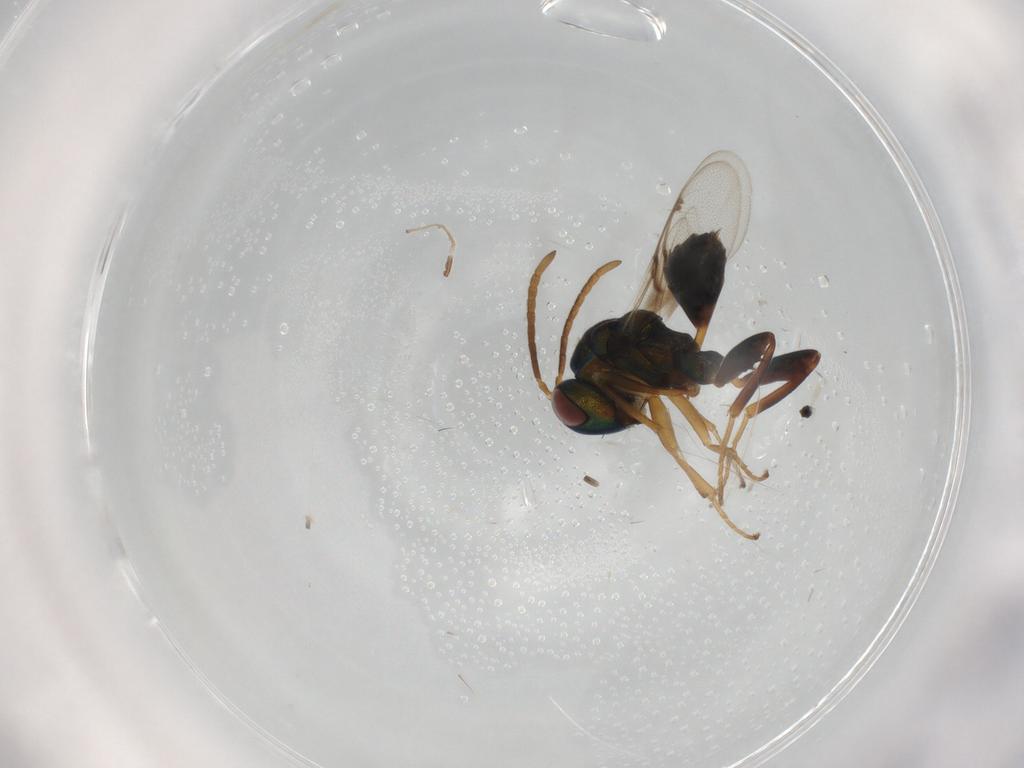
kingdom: Animalia
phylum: Arthropoda
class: Insecta
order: Hymenoptera
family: Torymidae
